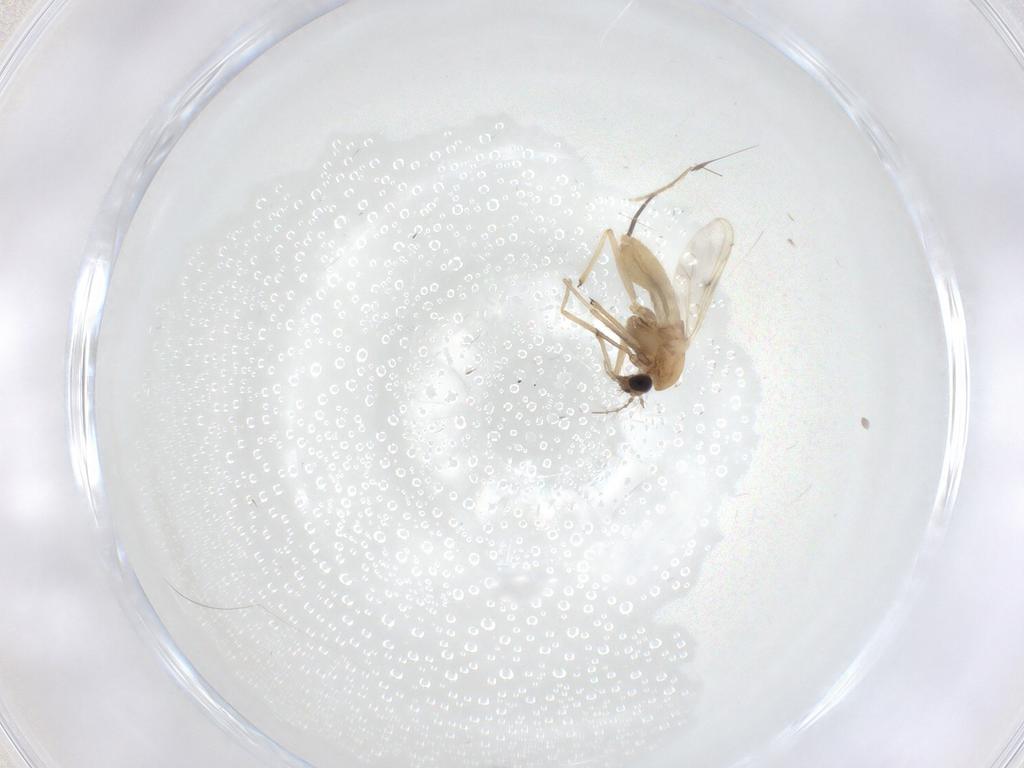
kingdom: Animalia
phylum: Arthropoda
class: Insecta
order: Diptera
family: Chironomidae
